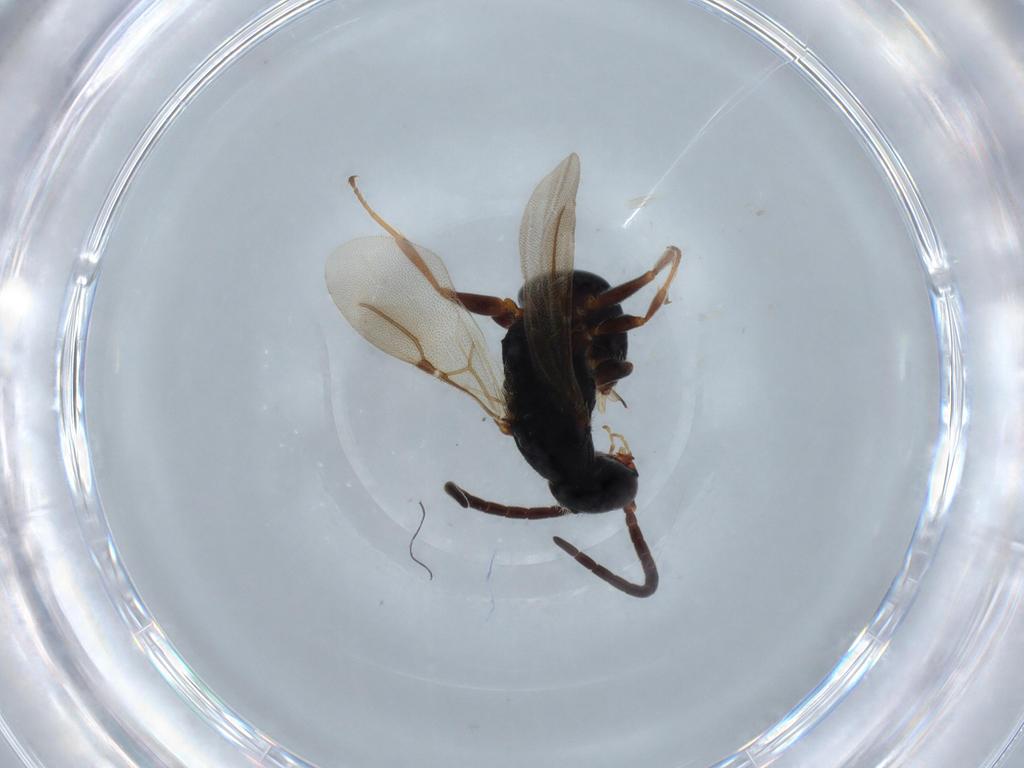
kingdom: Animalia
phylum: Arthropoda
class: Insecta
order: Hymenoptera
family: Bethylidae
